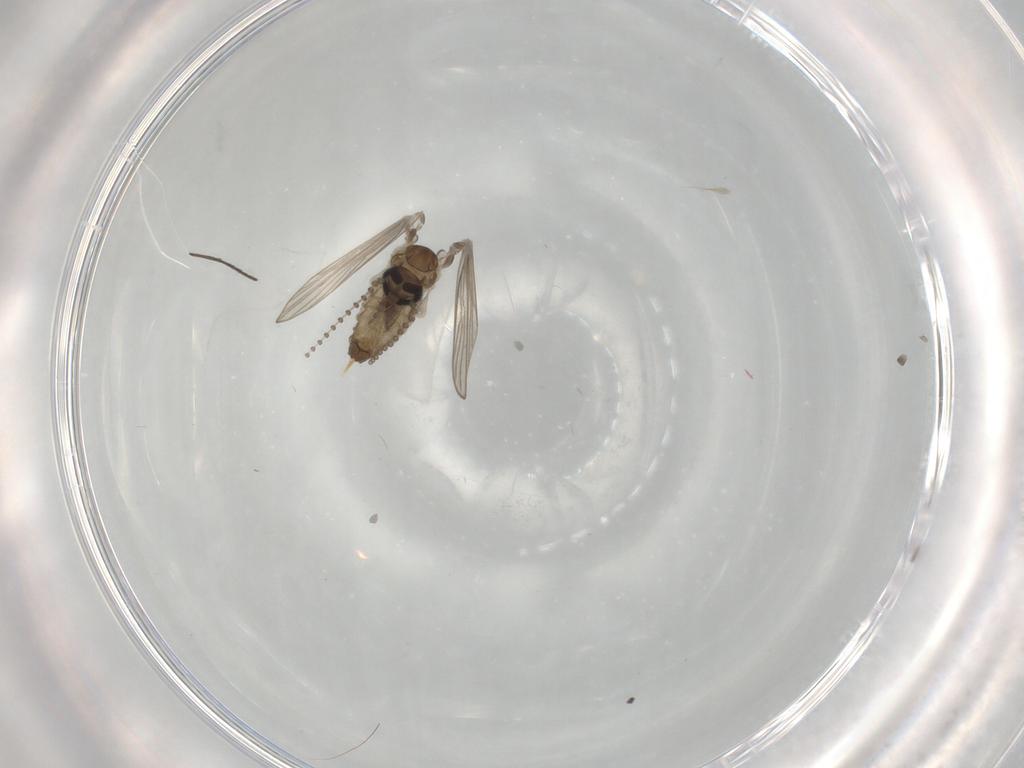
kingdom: Animalia
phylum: Arthropoda
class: Insecta
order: Diptera
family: Psychodidae
